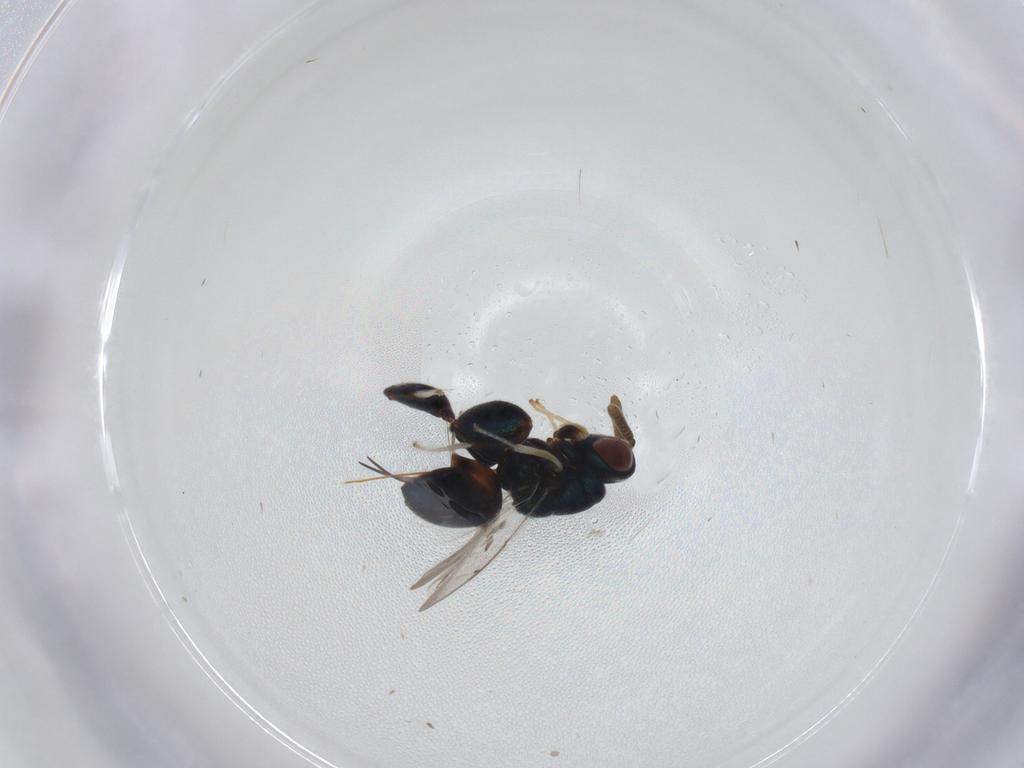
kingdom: Animalia
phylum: Arthropoda
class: Insecta
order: Hymenoptera
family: Torymidae
